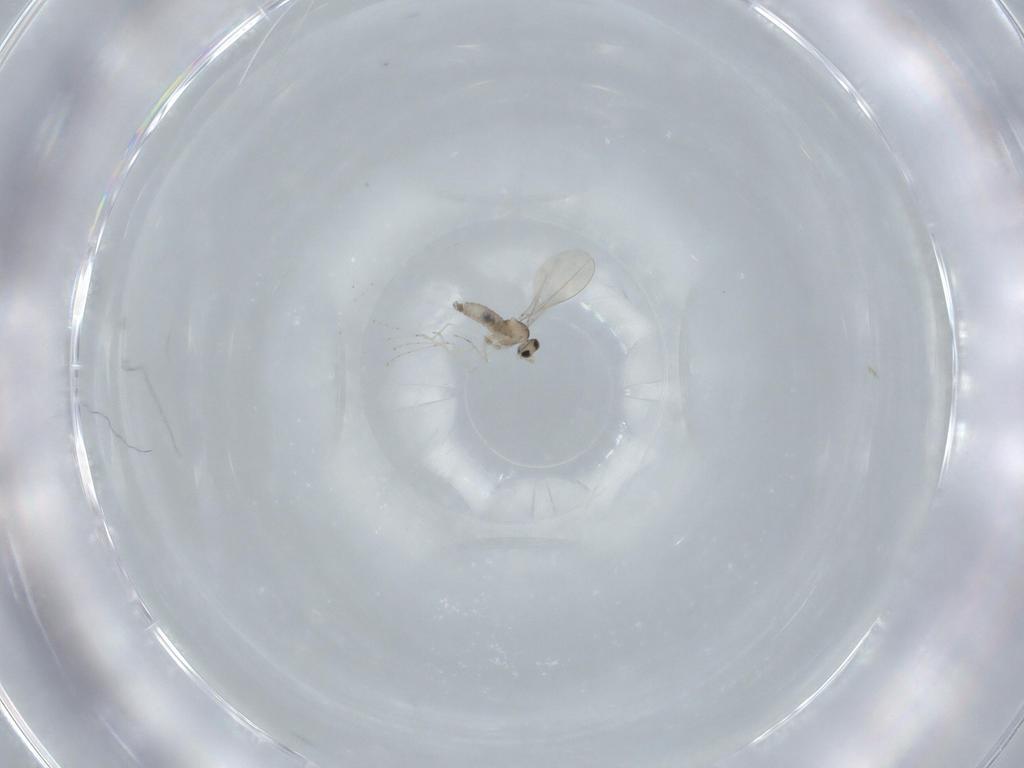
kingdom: Animalia
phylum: Arthropoda
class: Insecta
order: Diptera
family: Cecidomyiidae
